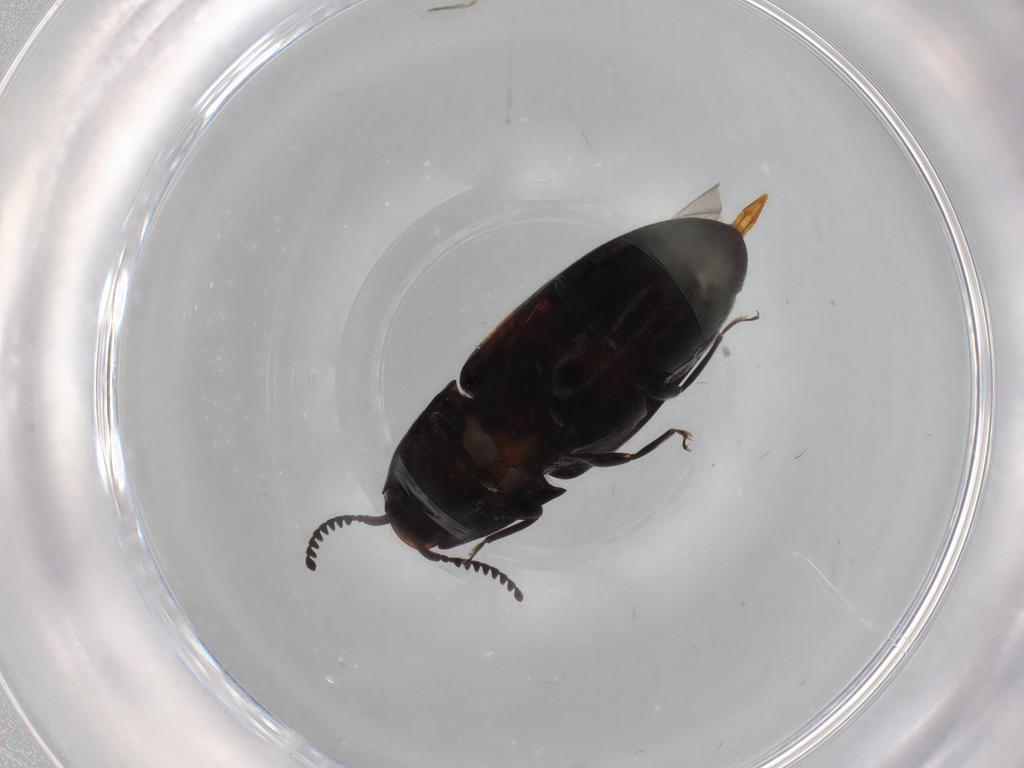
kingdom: Animalia
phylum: Arthropoda
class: Insecta
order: Coleoptera
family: Elateridae
